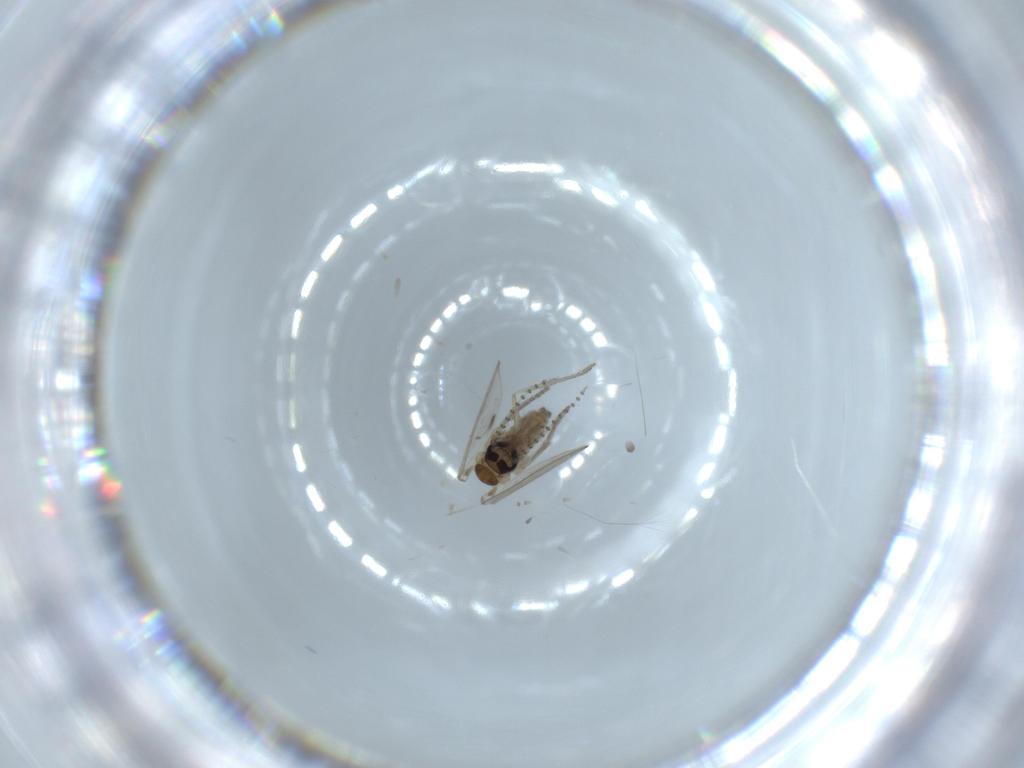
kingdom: Animalia
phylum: Arthropoda
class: Insecta
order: Diptera
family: Psychodidae
